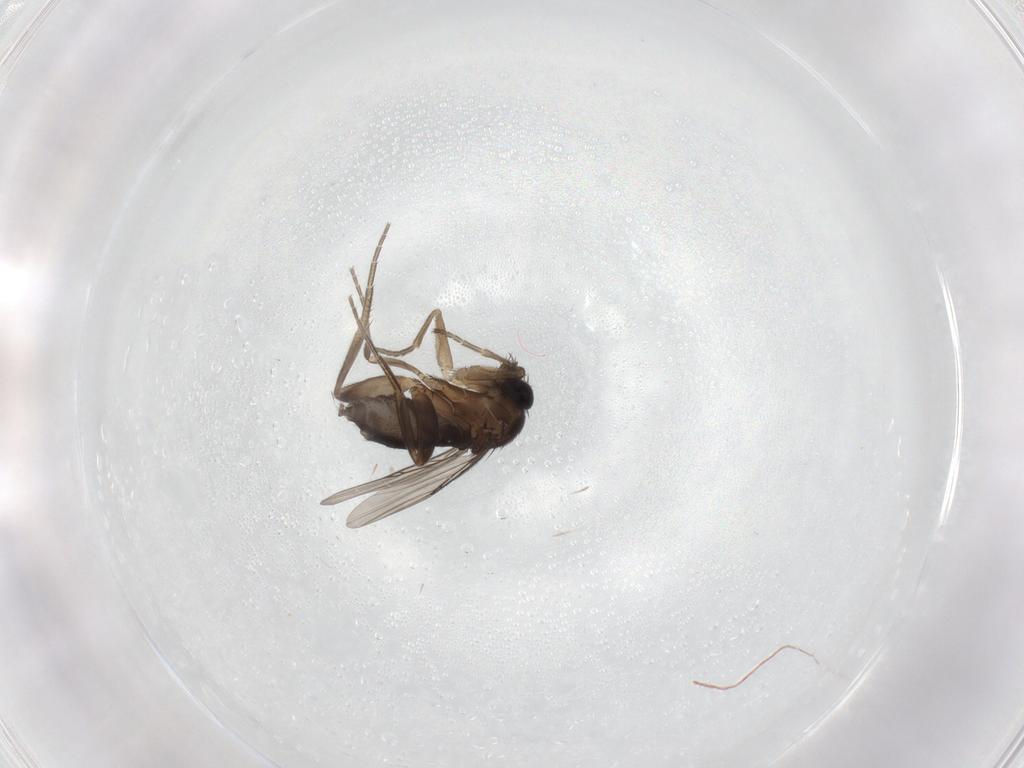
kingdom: Animalia
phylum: Arthropoda
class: Insecta
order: Diptera
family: Phoridae
